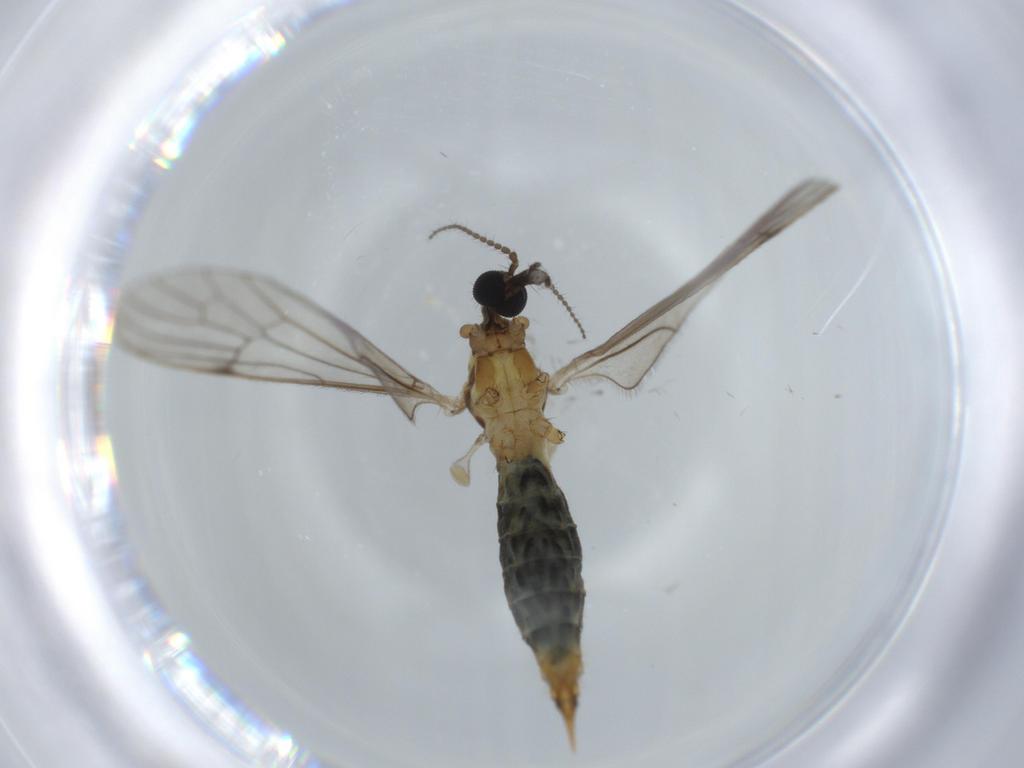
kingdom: Animalia
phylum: Arthropoda
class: Insecta
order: Diptera
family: Limoniidae
